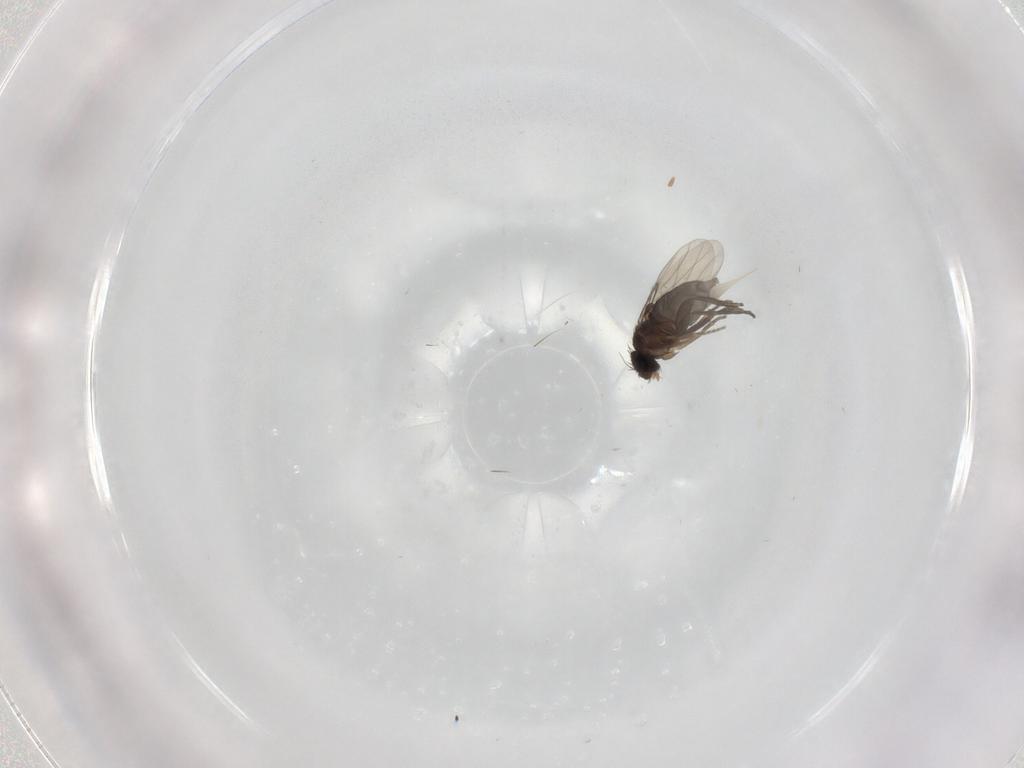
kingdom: Animalia
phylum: Arthropoda
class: Insecta
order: Diptera
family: Phoridae
